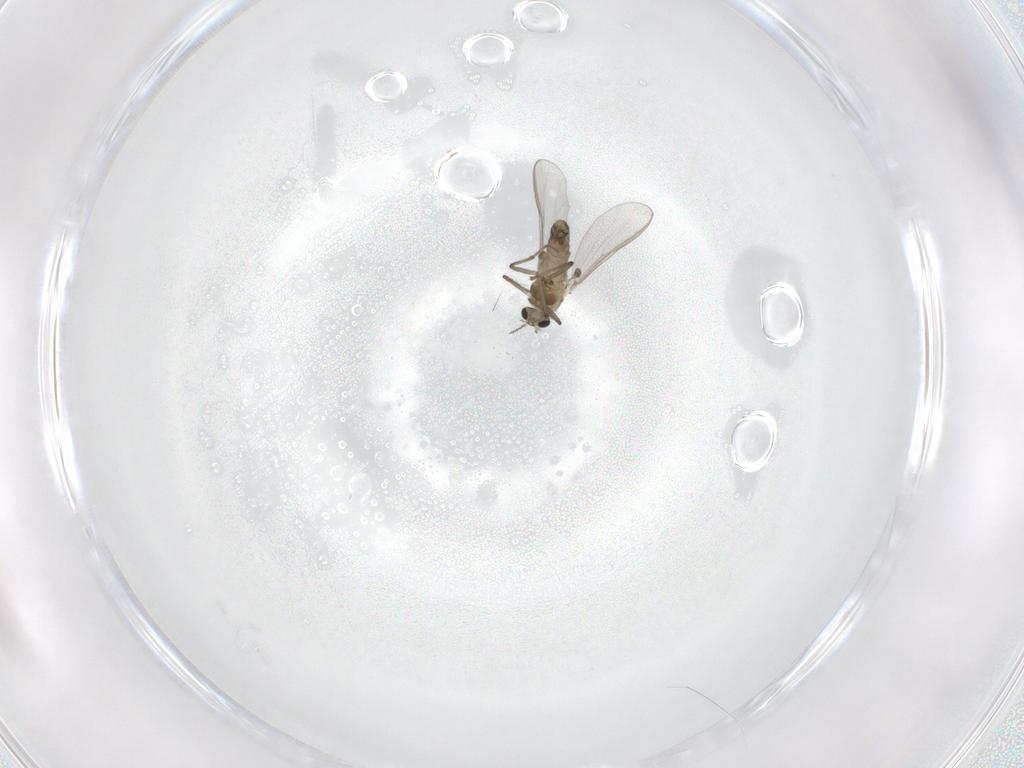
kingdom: Animalia
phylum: Arthropoda
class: Insecta
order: Diptera
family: Chironomidae
